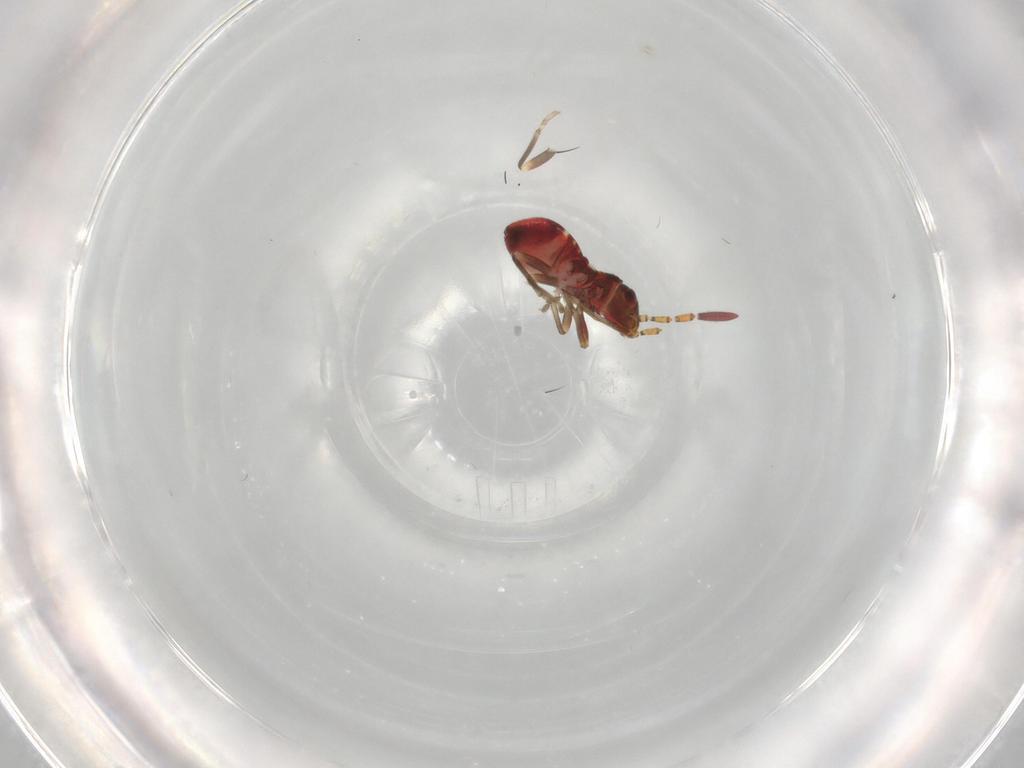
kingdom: Animalia
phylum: Arthropoda
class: Insecta
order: Hemiptera
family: Rhyparochromidae
